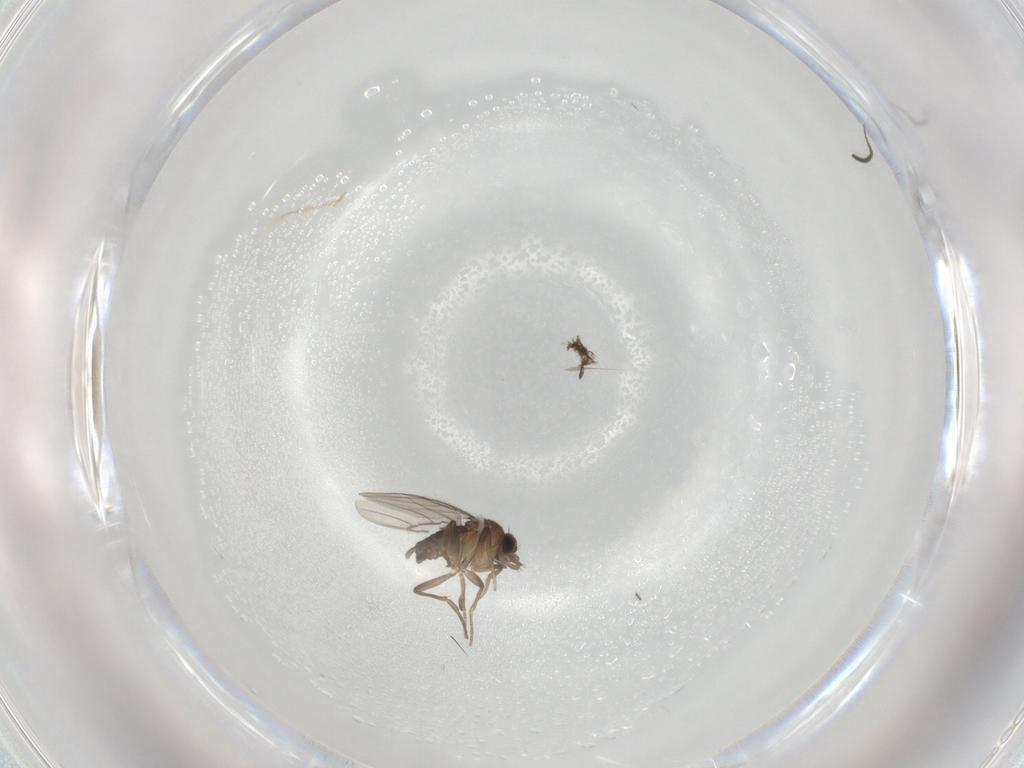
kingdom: Animalia
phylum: Arthropoda
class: Insecta
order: Diptera
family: Phoridae
